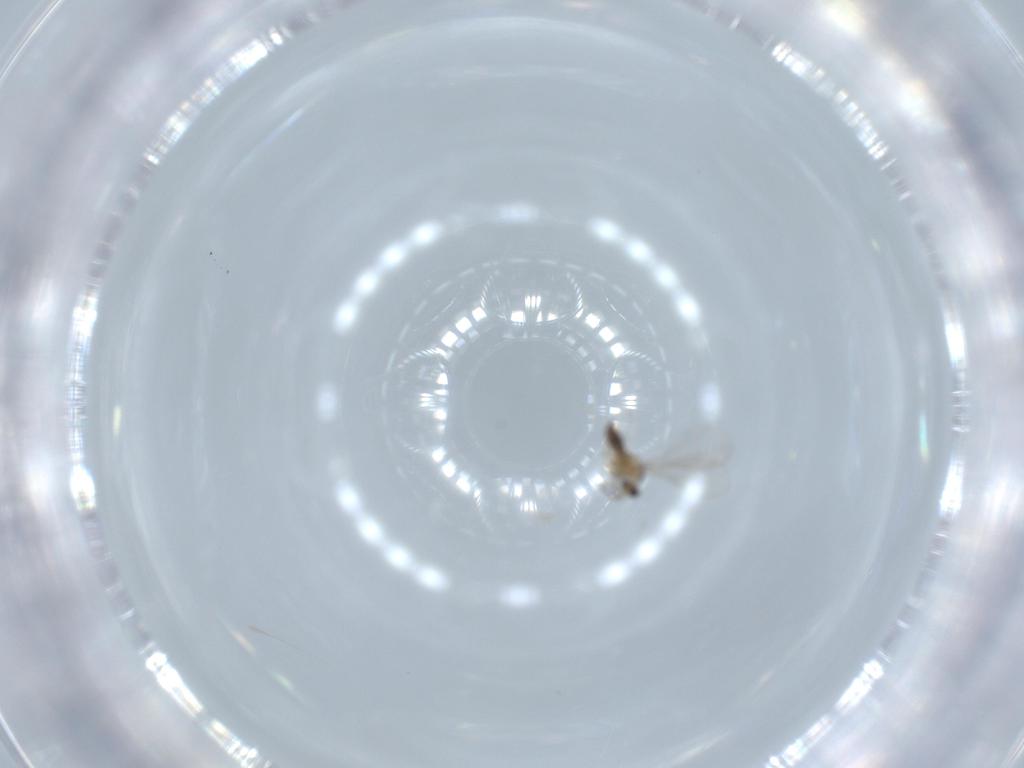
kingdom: Animalia
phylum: Arthropoda
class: Insecta
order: Diptera
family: Cecidomyiidae
